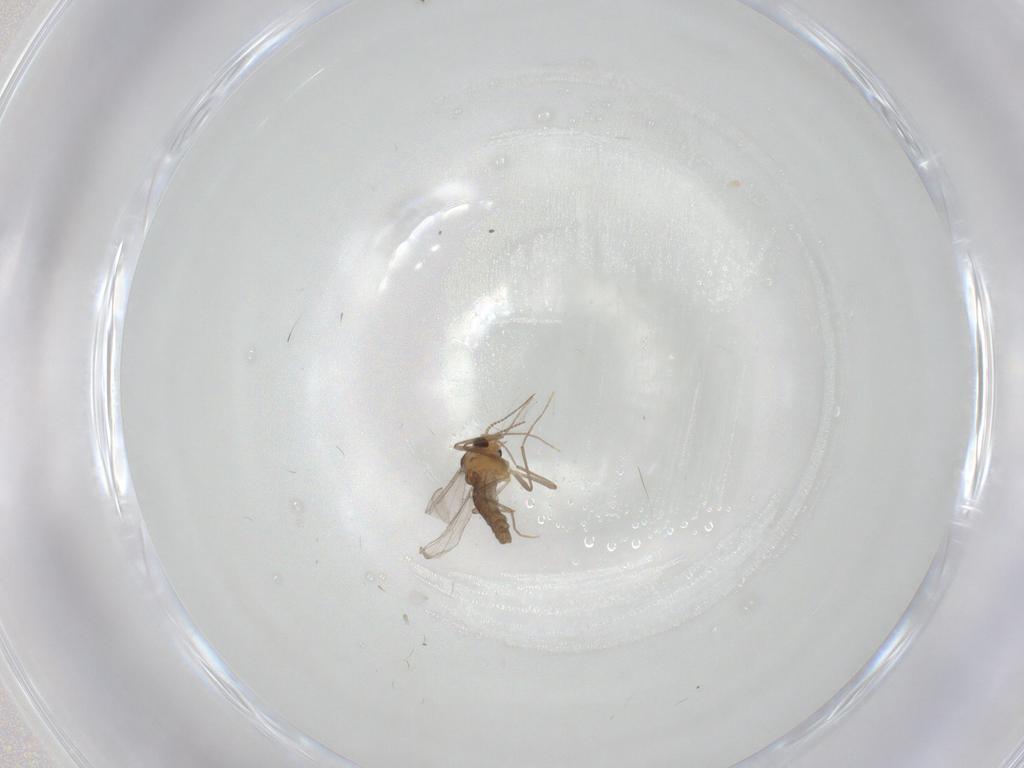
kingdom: Animalia
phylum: Arthropoda
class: Insecta
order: Diptera
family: Chironomidae
